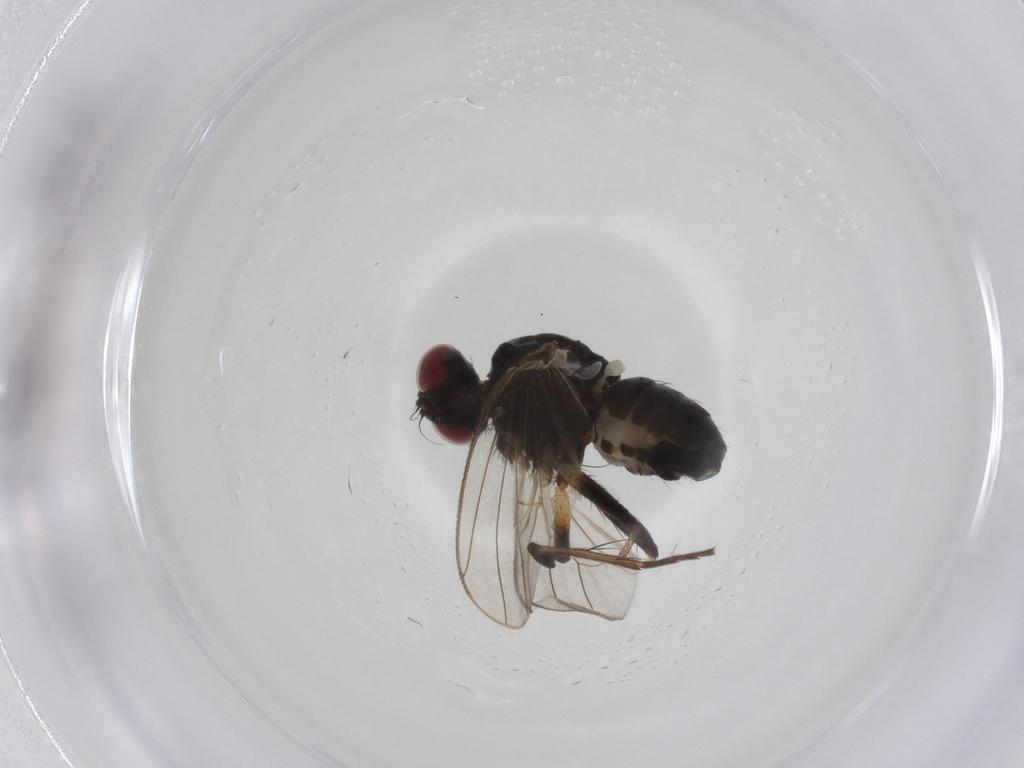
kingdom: Animalia
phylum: Arthropoda
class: Insecta
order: Diptera
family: Muscidae
